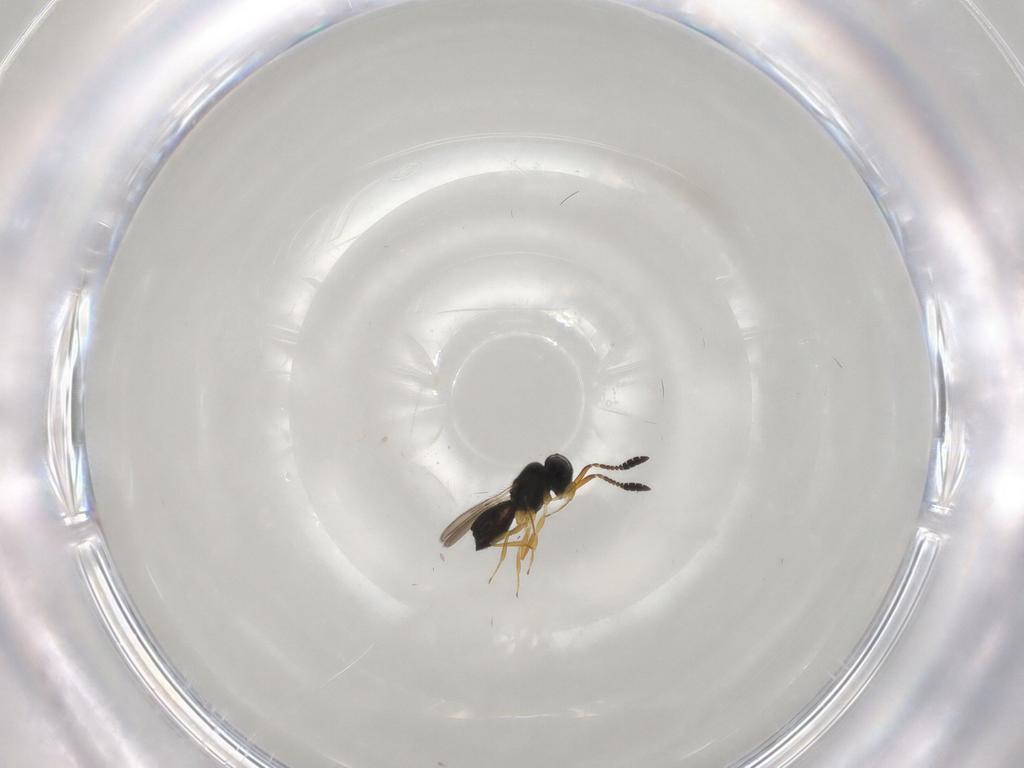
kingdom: Animalia
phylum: Arthropoda
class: Insecta
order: Hymenoptera
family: Scelionidae
